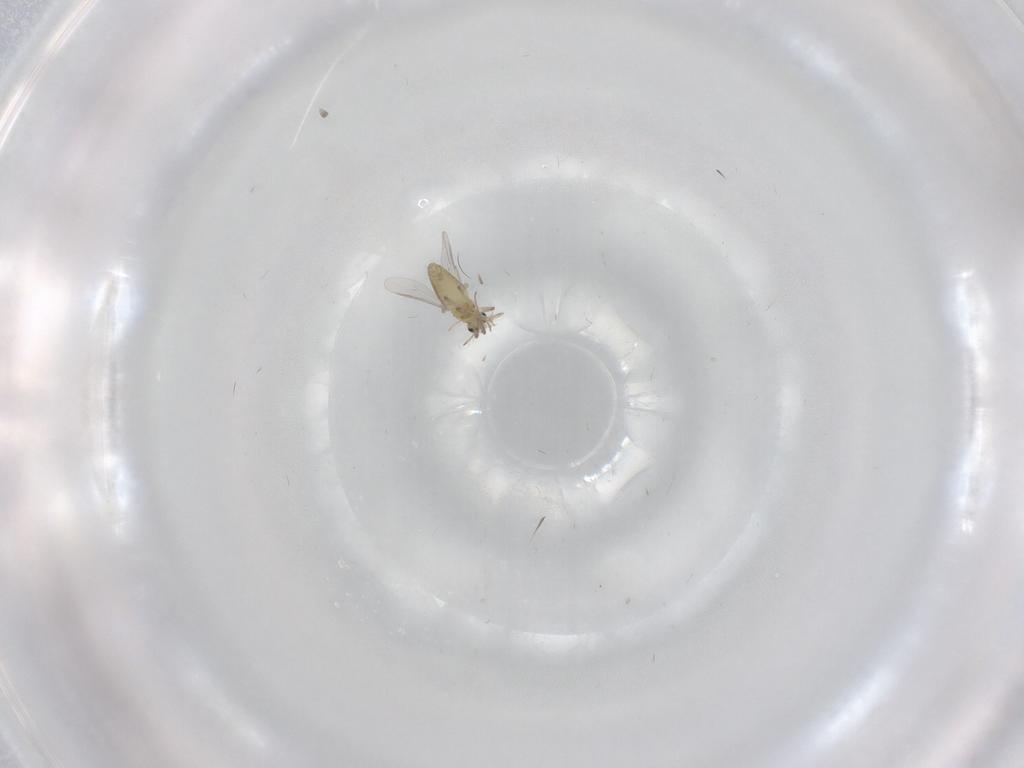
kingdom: Animalia
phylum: Arthropoda
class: Insecta
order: Diptera
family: Chironomidae
